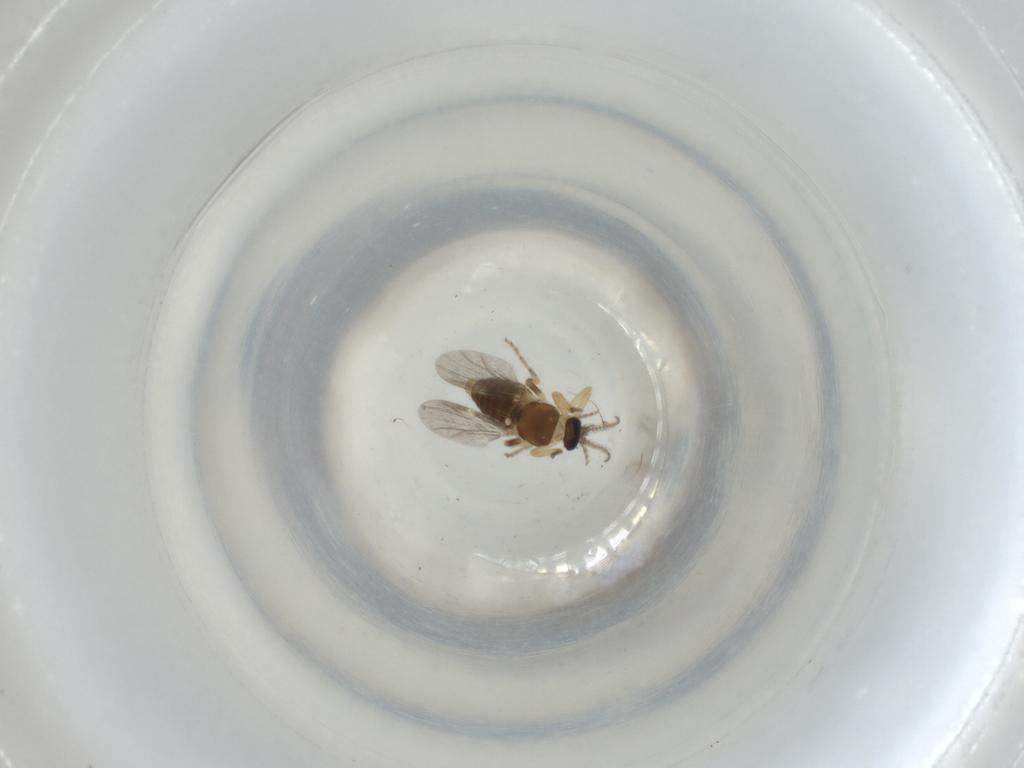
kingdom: Animalia
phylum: Arthropoda
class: Insecta
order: Diptera
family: Ceratopogonidae
